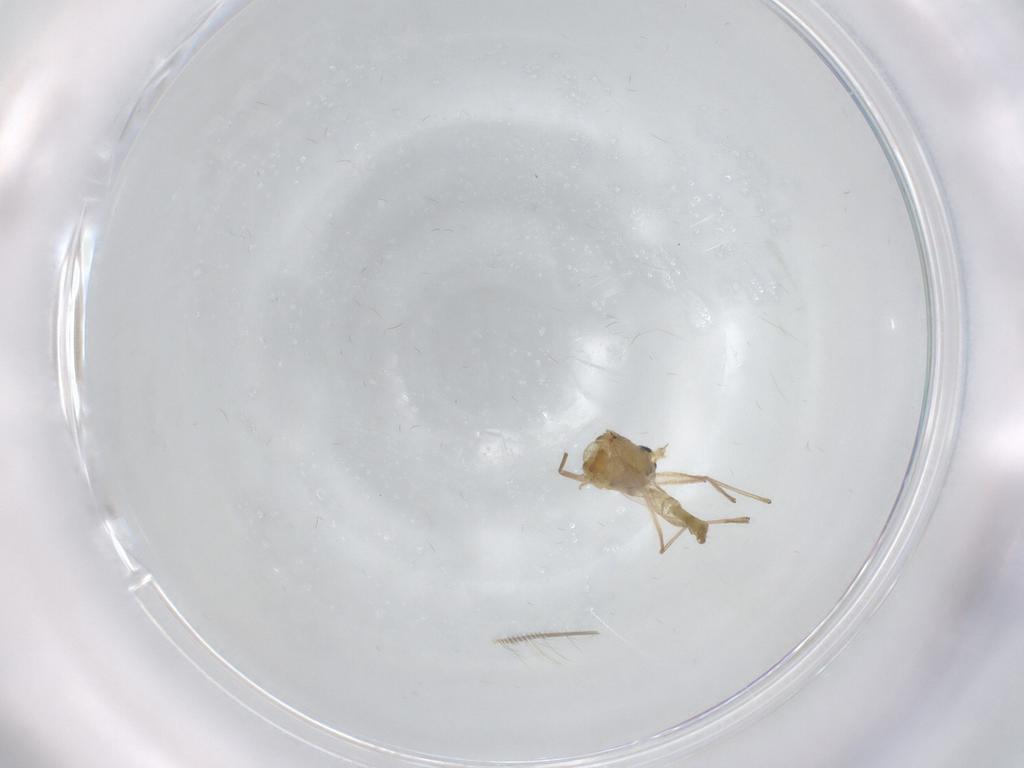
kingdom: Animalia
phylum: Arthropoda
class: Insecta
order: Diptera
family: Chironomidae
